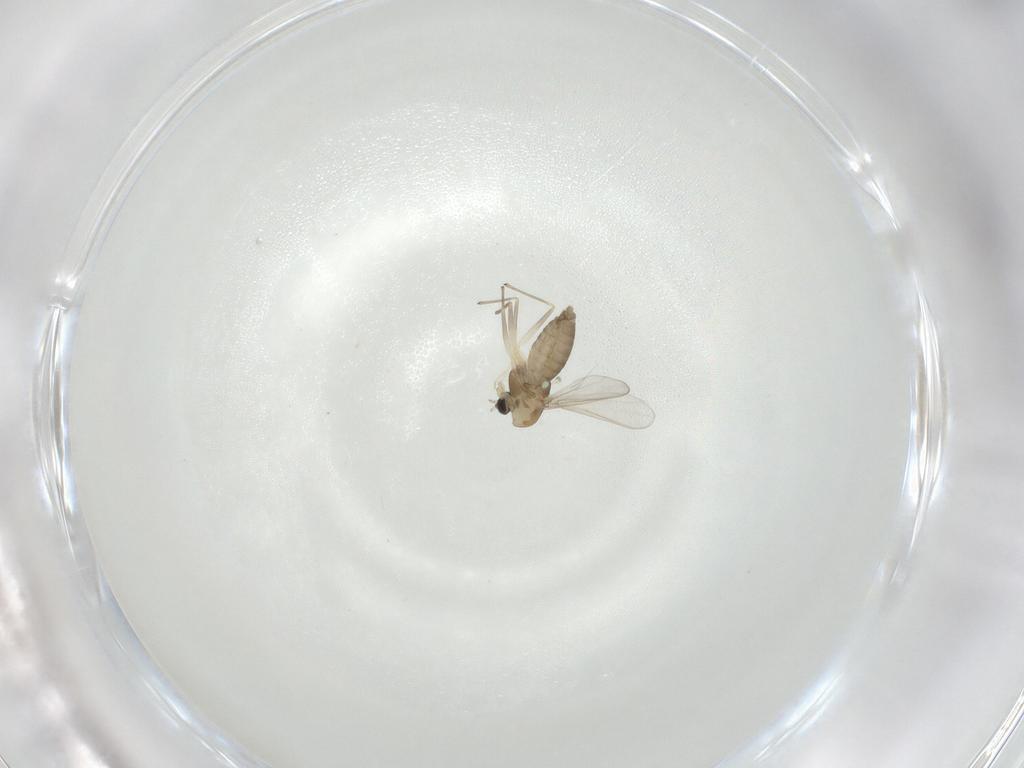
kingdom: Animalia
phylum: Arthropoda
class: Insecta
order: Diptera
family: Chironomidae
